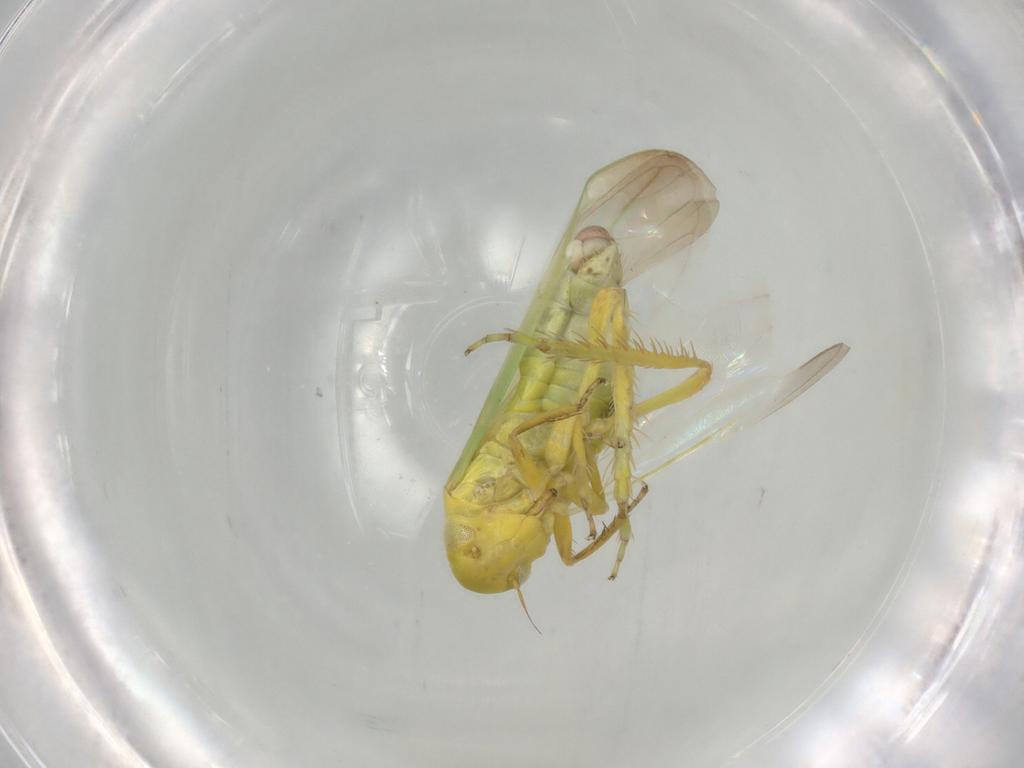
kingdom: Animalia
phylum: Arthropoda
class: Insecta
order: Hemiptera
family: Cicadellidae
